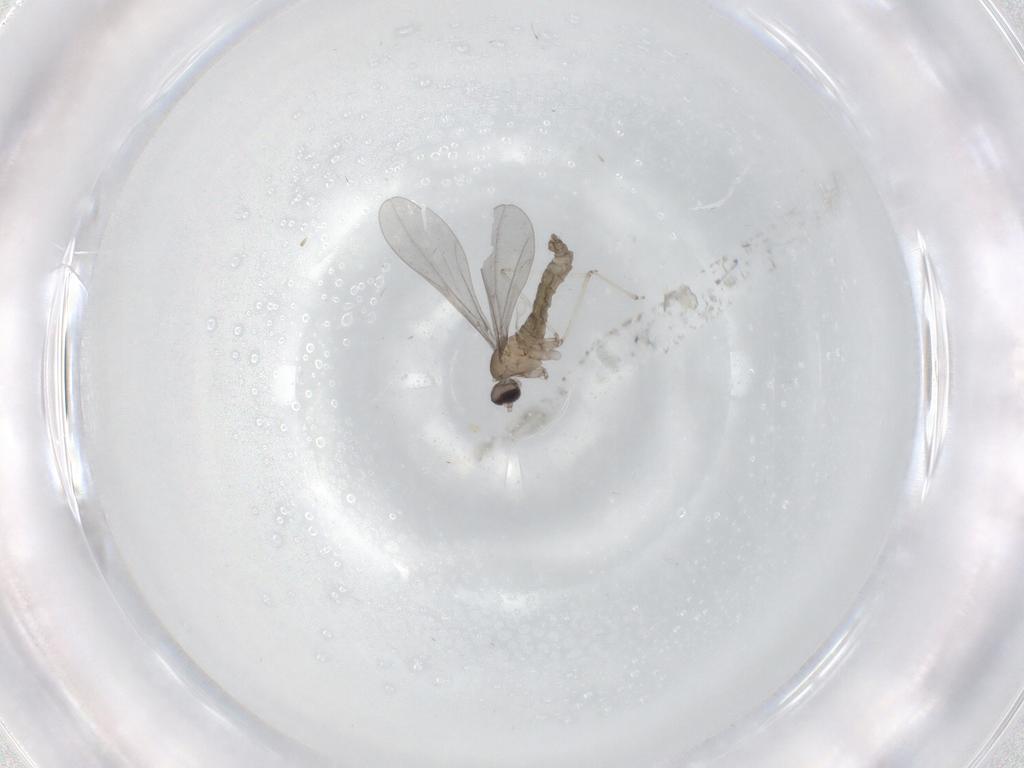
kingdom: Animalia
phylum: Arthropoda
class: Insecta
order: Diptera
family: Cecidomyiidae
